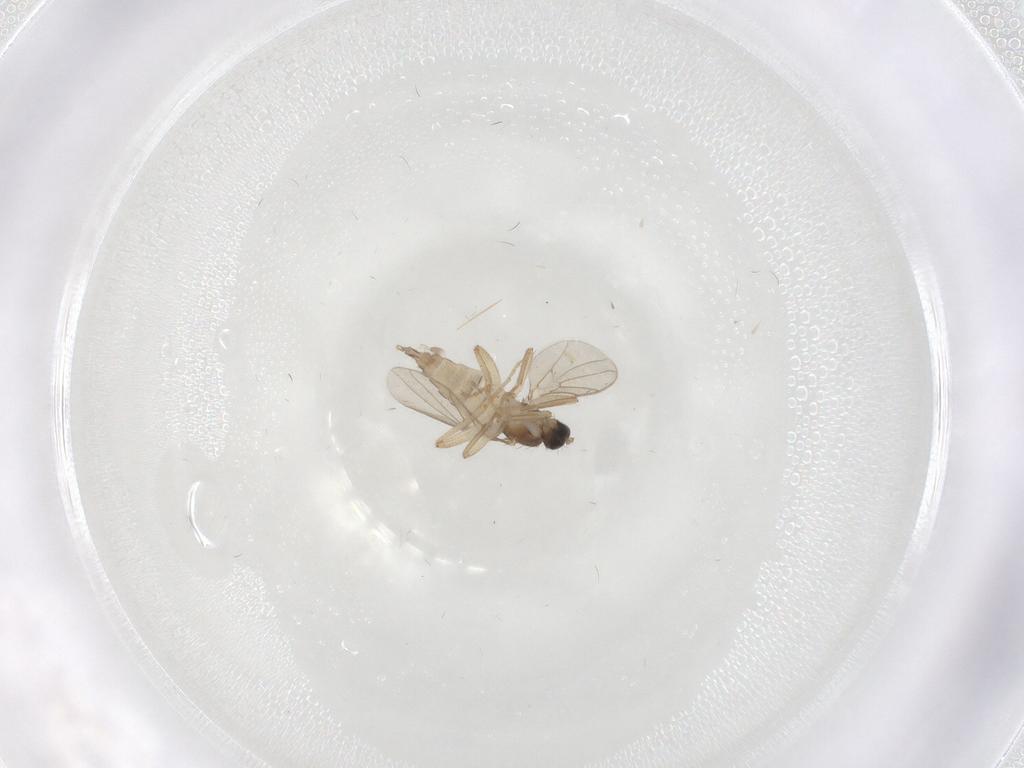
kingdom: Animalia
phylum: Arthropoda
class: Insecta
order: Diptera
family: Hybotidae
